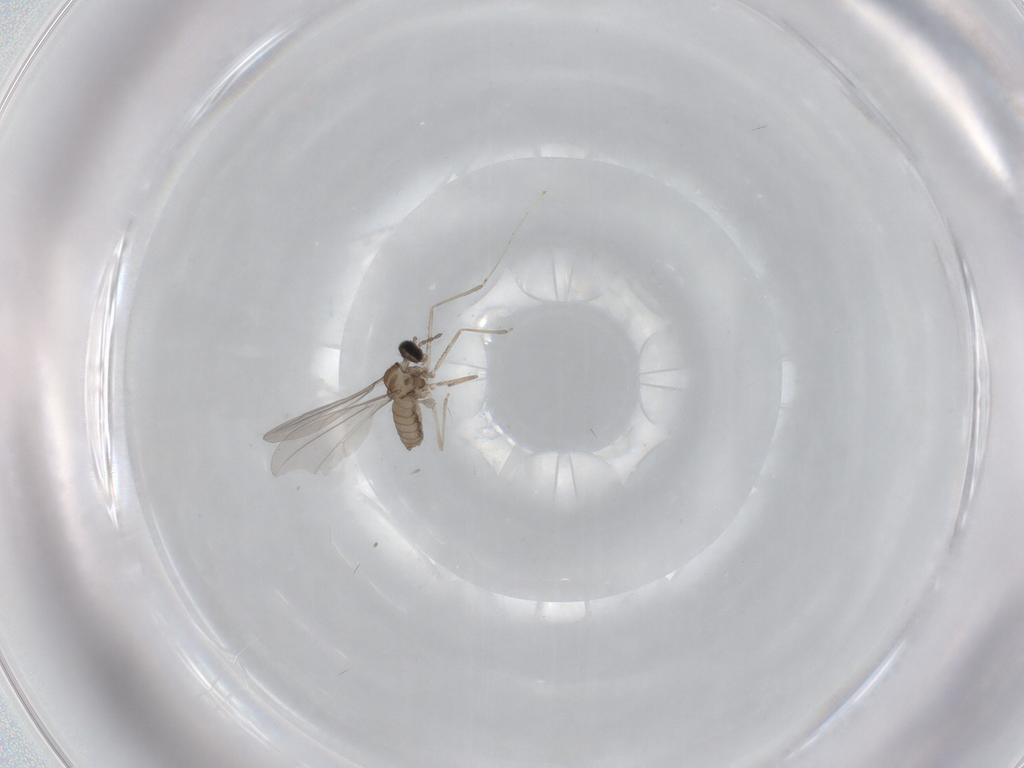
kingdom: Animalia
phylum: Arthropoda
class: Insecta
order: Diptera
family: Cecidomyiidae
